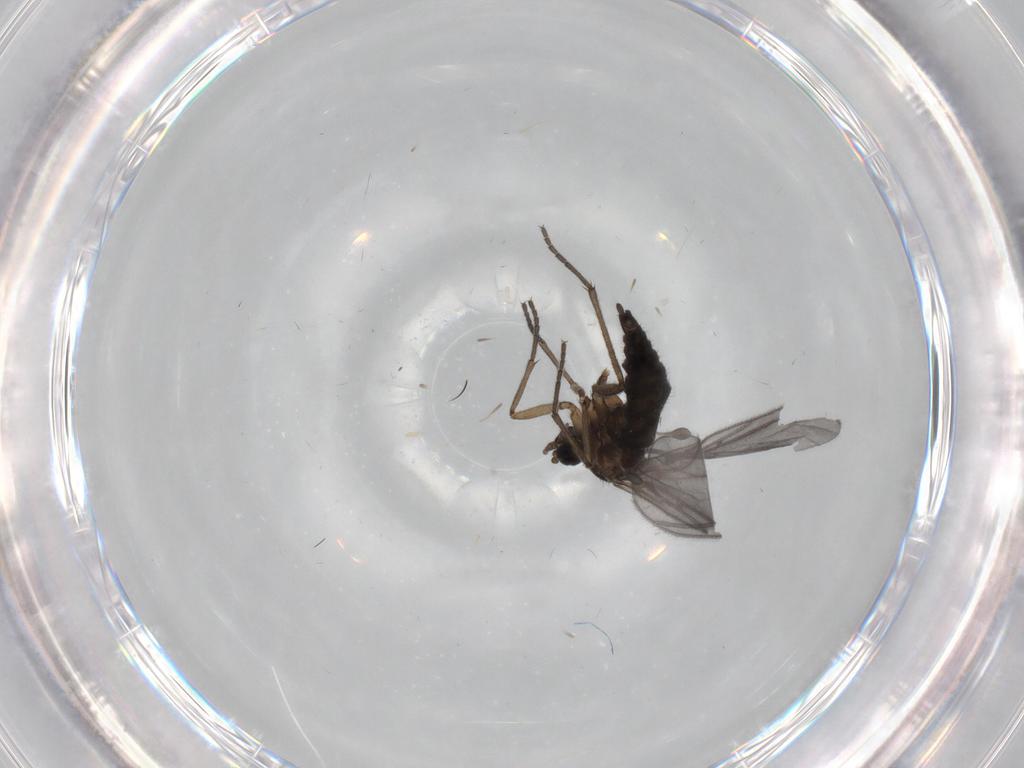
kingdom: Animalia
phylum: Arthropoda
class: Insecta
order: Diptera
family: Sciaridae
